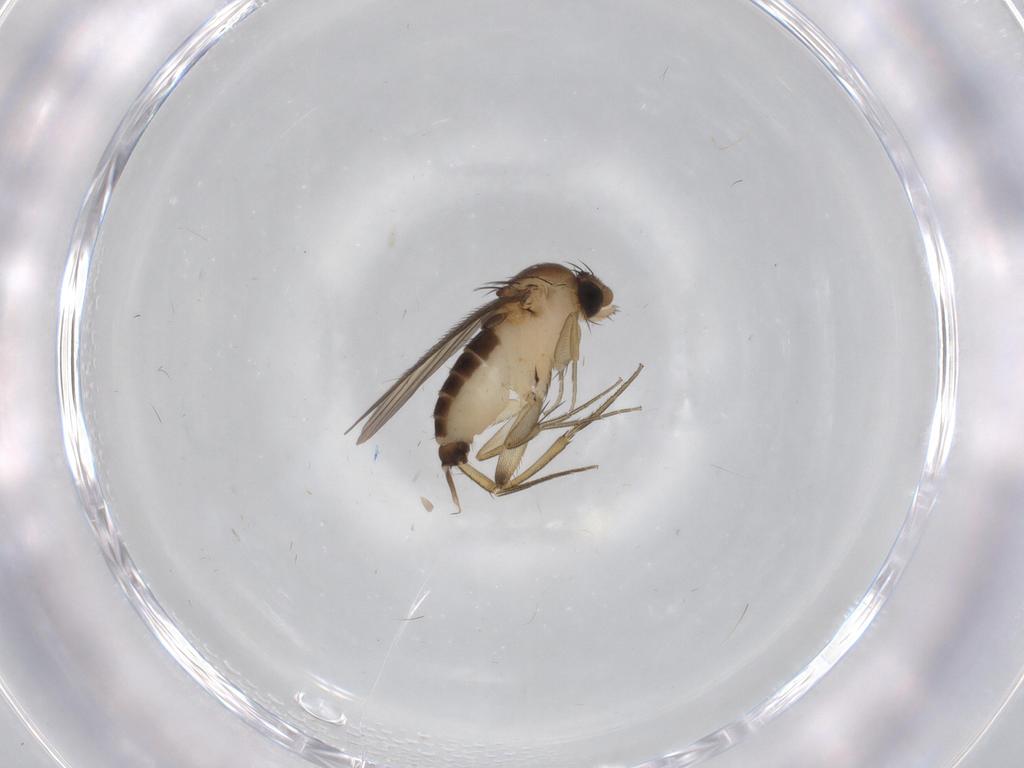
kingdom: Animalia
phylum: Arthropoda
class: Insecta
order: Diptera
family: Phoridae
